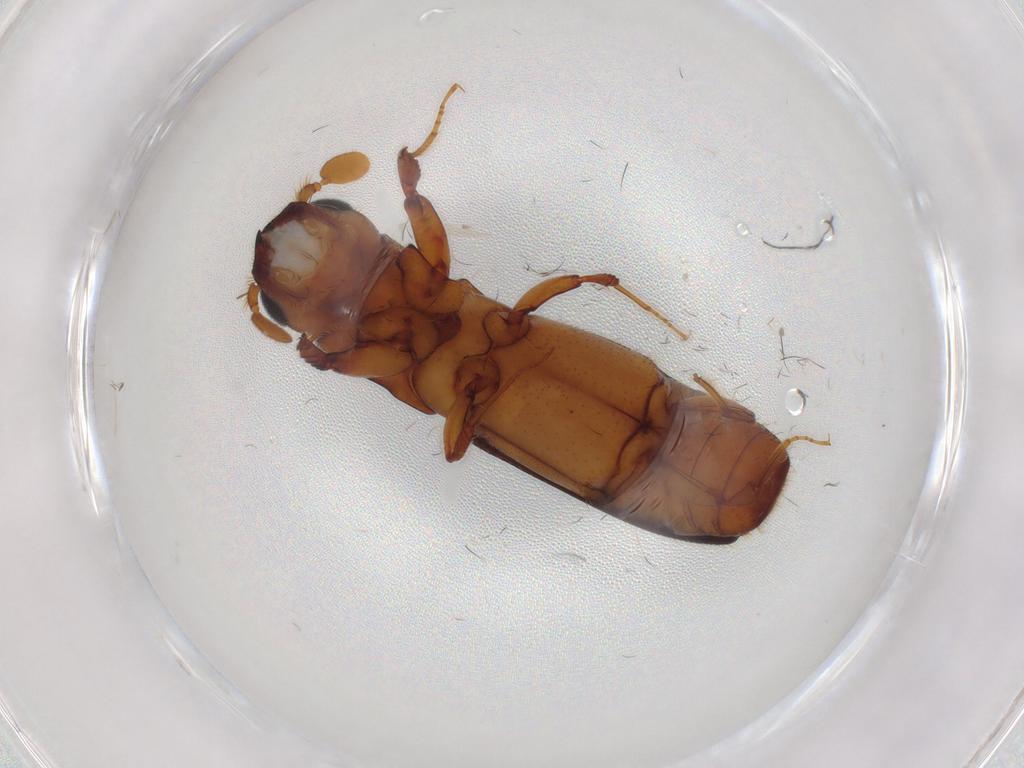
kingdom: Animalia
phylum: Arthropoda
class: Insecta
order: Coleoptera
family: Curculionidae
